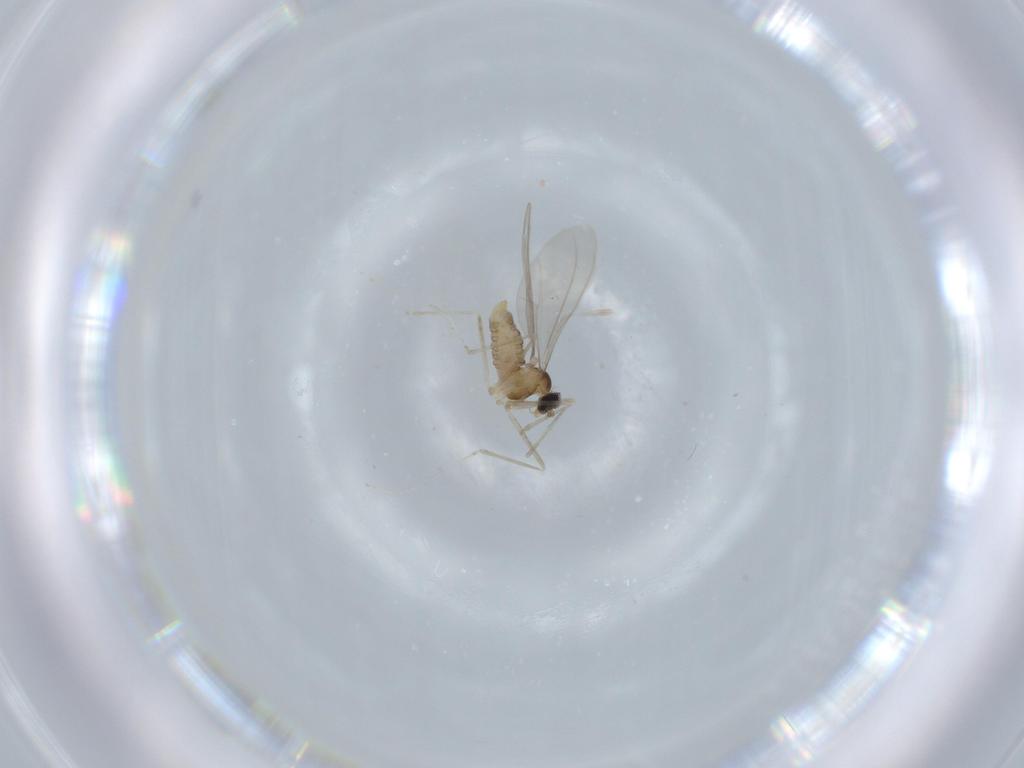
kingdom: Animalia
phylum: Arthropoda
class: Insecta
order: Diptera
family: Cecidomyiidae
